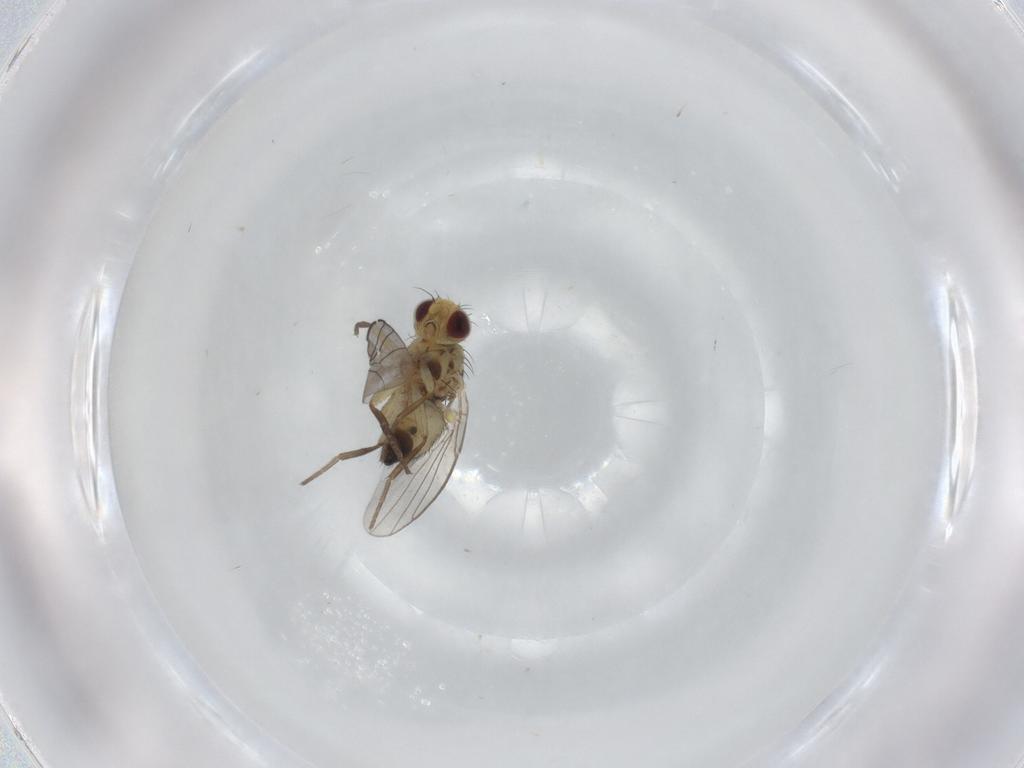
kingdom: Animalia
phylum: Arthropoda
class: Insecta
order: Diptera
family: Agromyzidae
